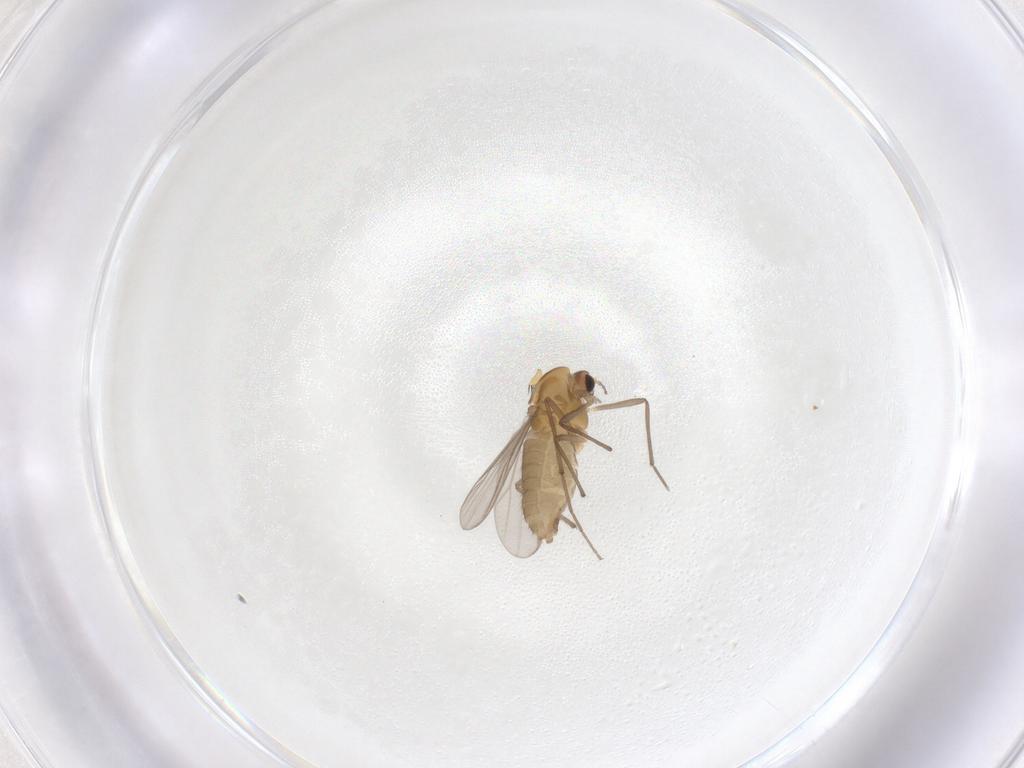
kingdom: Animalia
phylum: Arthropoda
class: Insecta
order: Diptera
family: Chironomidae
